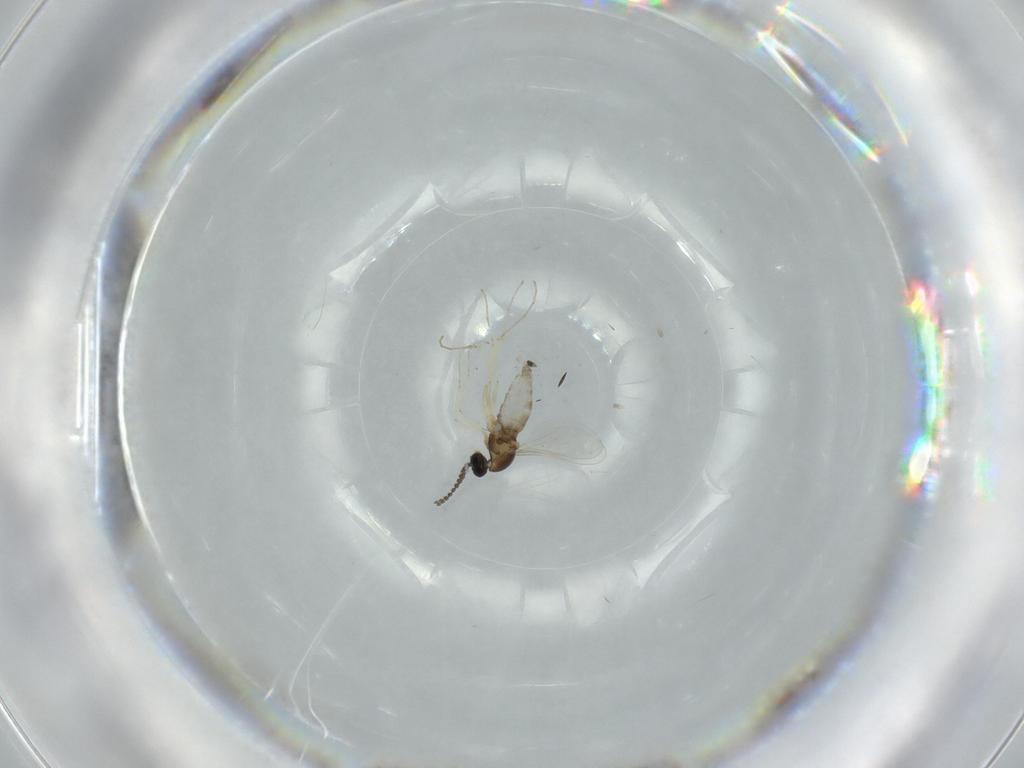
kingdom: Animalia
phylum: Arthropoda
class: Insecta
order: Diptera
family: Cecidomyiidae
